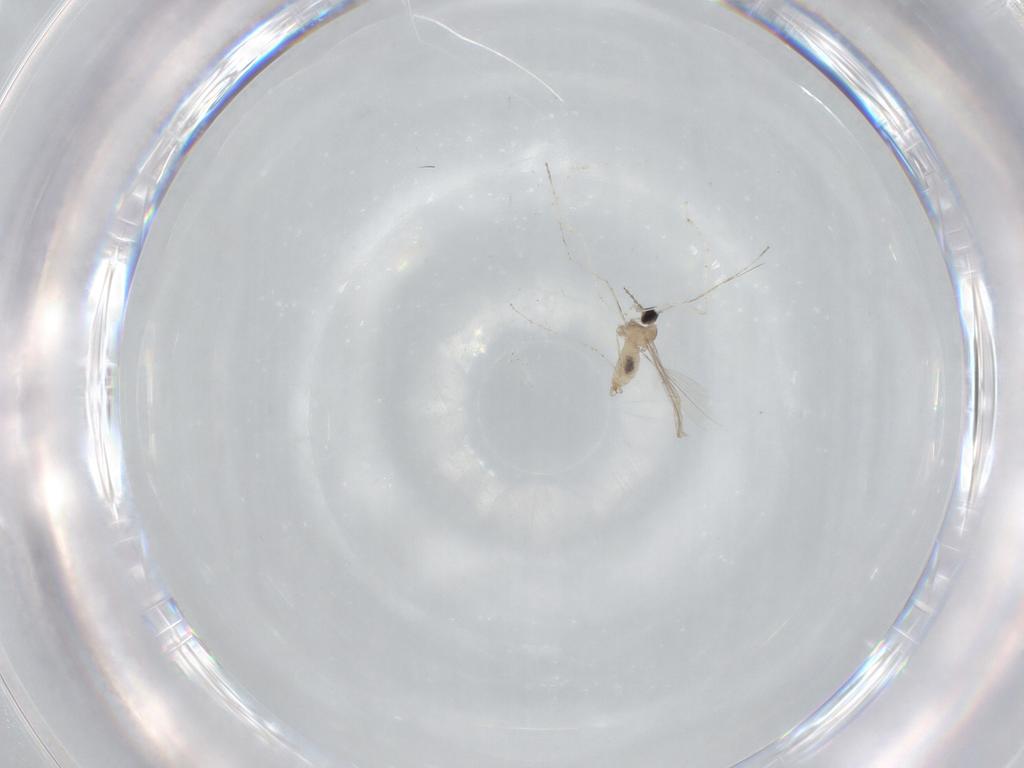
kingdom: Animalia
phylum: Arthropoda
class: Insecta
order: Diptera
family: Cecidomyiidae
